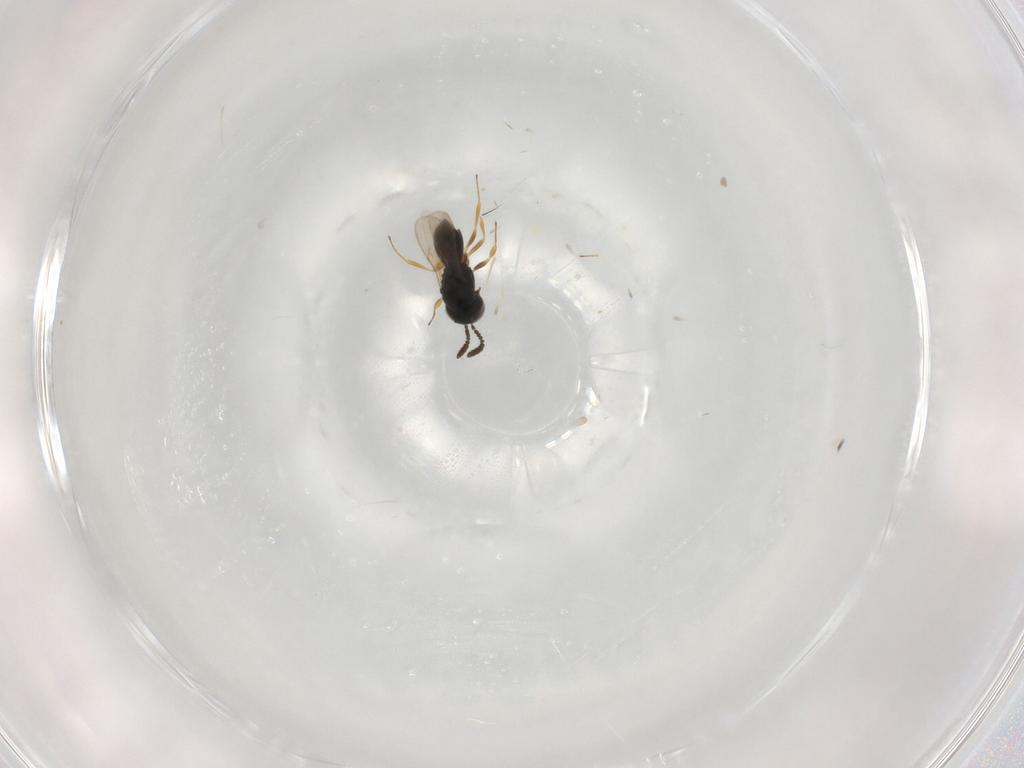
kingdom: Animalia
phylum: Arthropoda
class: Insecta
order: Hymenoptera
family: Scelionidae
